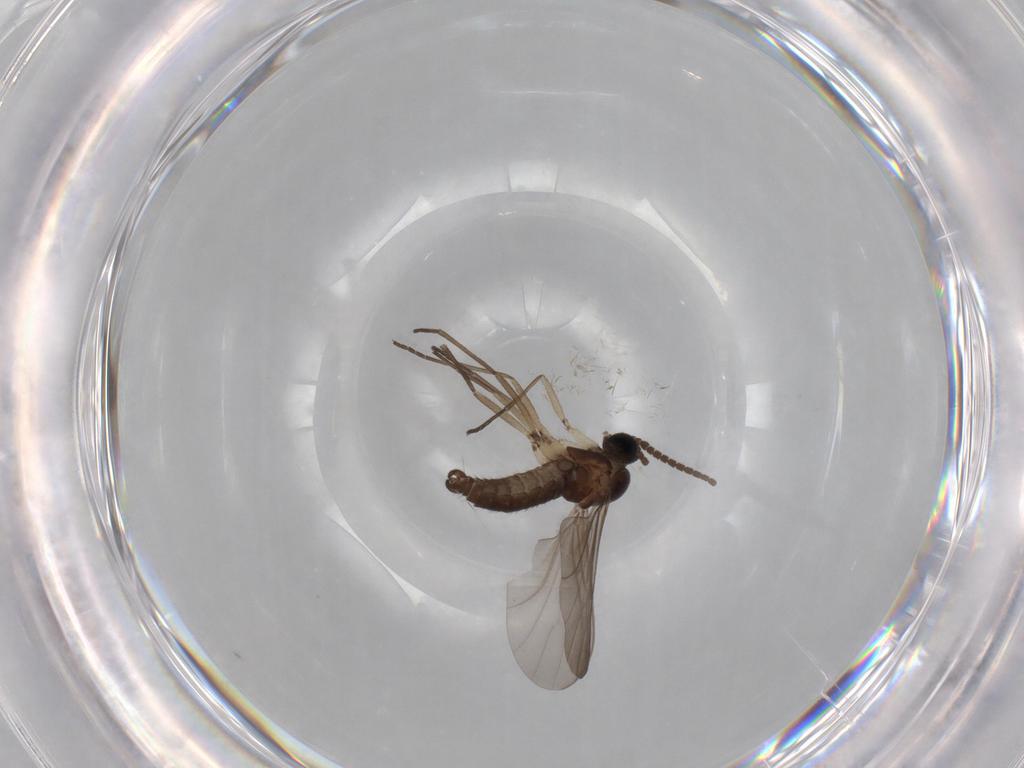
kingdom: Animalia
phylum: Arthropoda
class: Insecta
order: Diptera
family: Sciaridae
